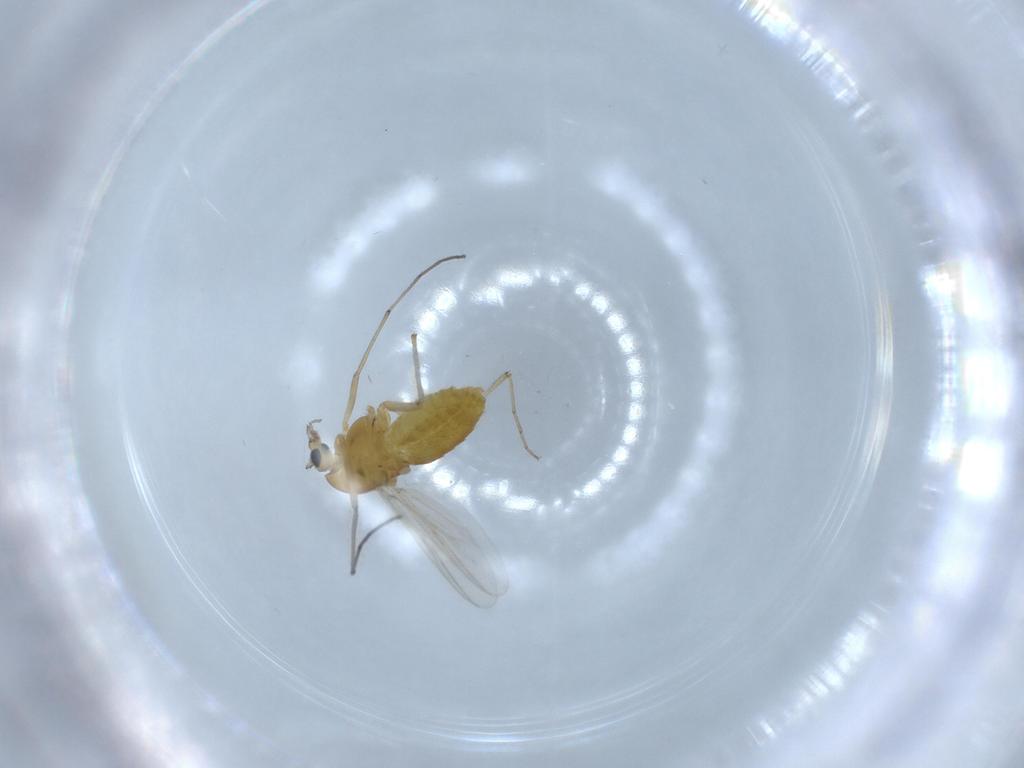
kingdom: Animalia
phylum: Arthropoda
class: Insecta
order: Diptera
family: Chironomidae
